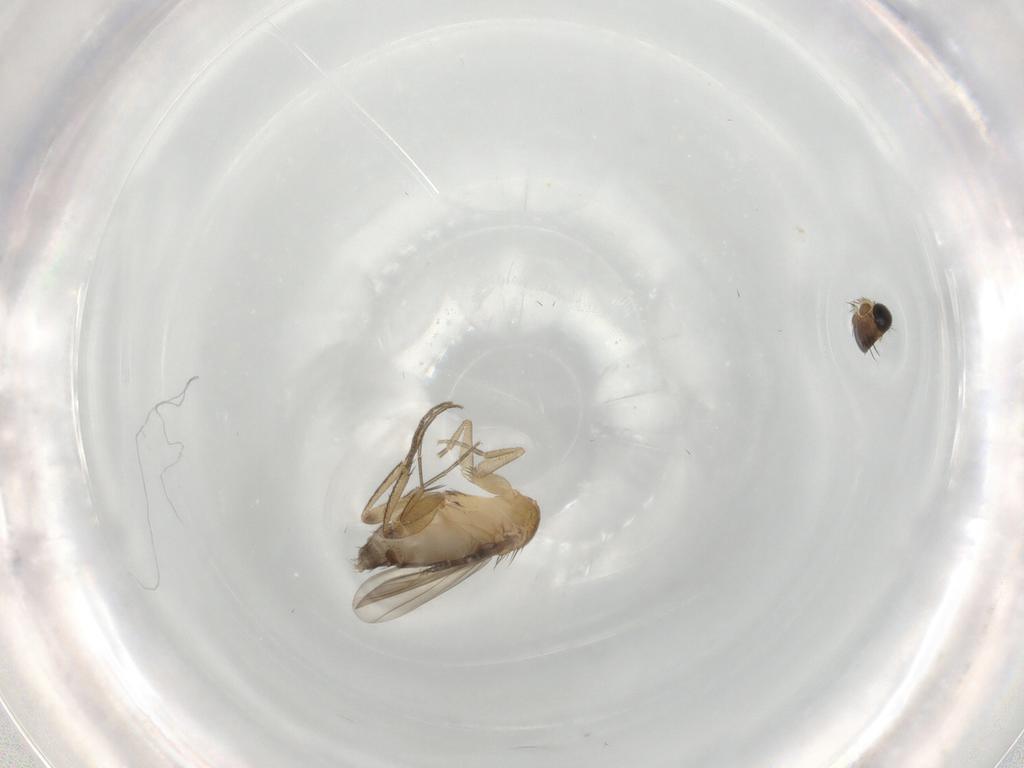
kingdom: Animalia
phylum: Arthropoda
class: Insecta
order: Diptera
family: Phoridae
